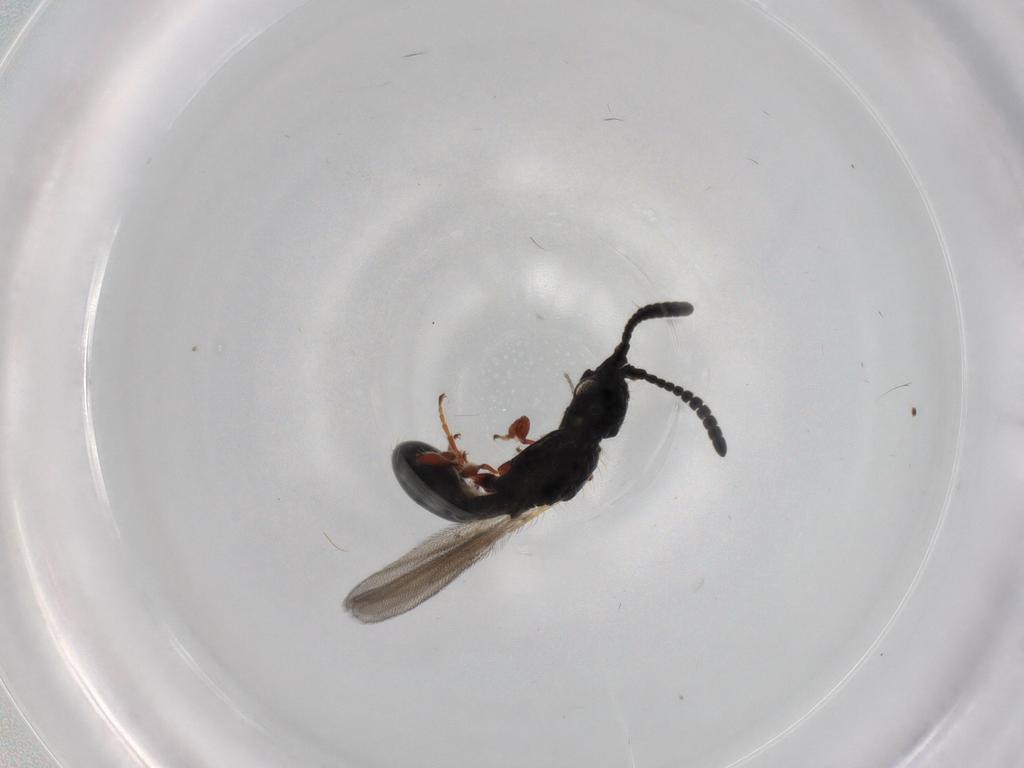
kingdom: Animalia
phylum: Arthropoda
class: Insecta
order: Hymenoptera
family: Diapriidae
